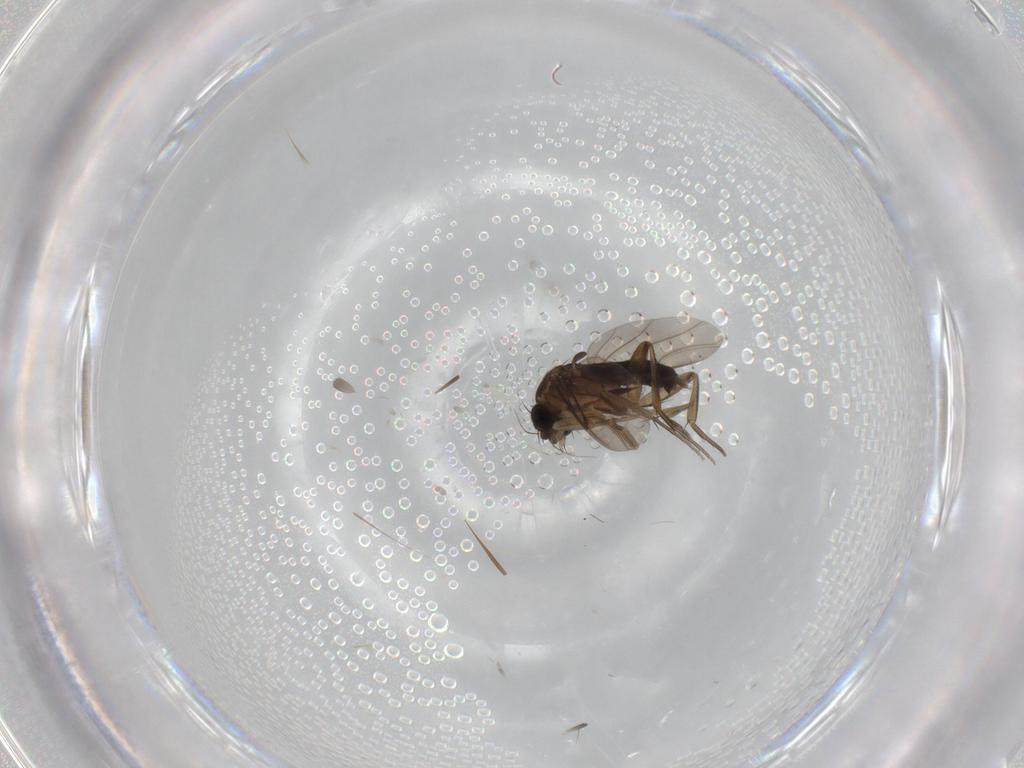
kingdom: Animalia
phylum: Arthropoda
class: Insecta
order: Diptera
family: Phoridae
